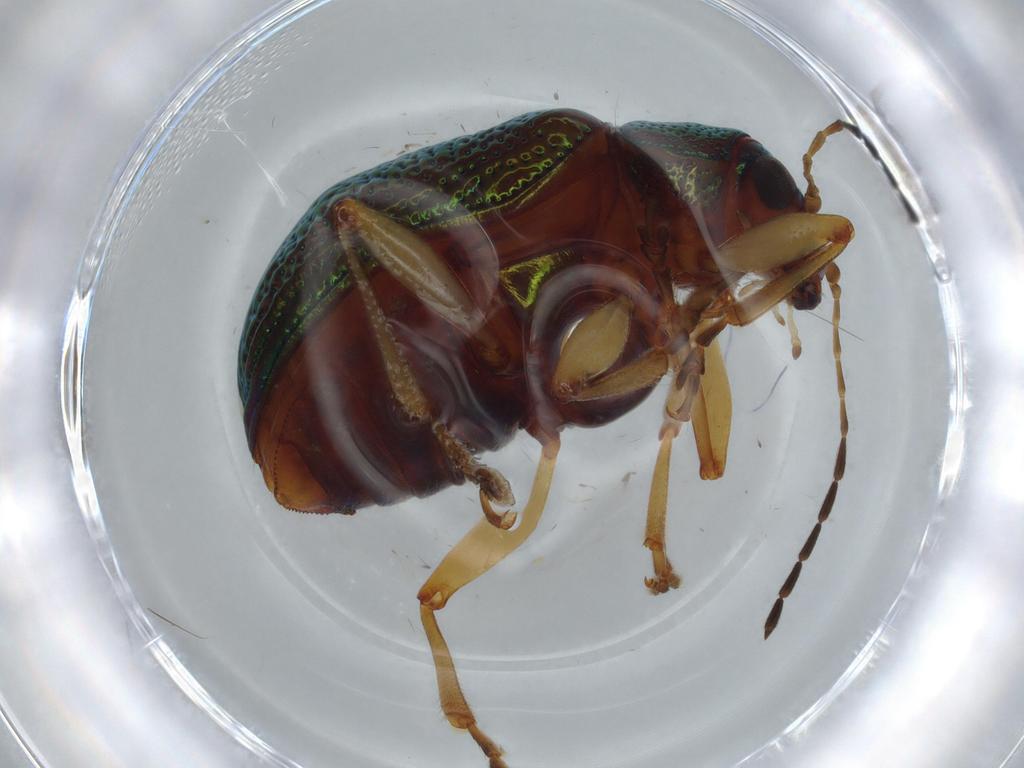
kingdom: Animalia
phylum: Arthropoda
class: Insecta
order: Coleoptera
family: Chrysomelidae
